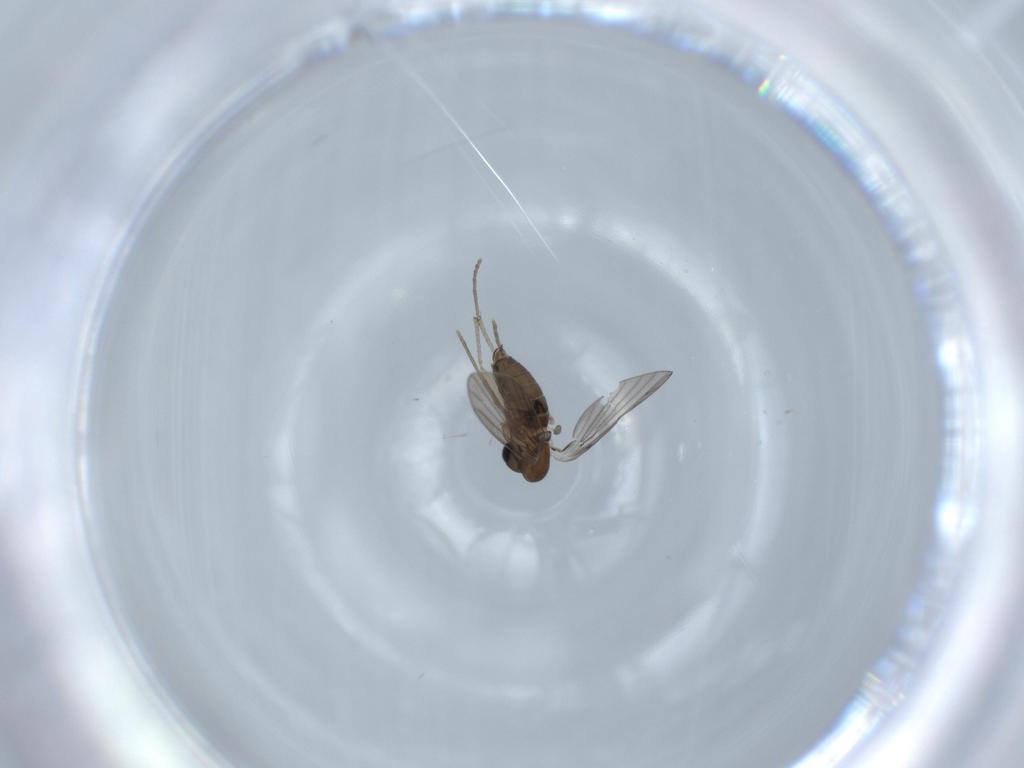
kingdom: Animalia
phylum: Arthropoda
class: Insecta
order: Diptera
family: Psychodidae
